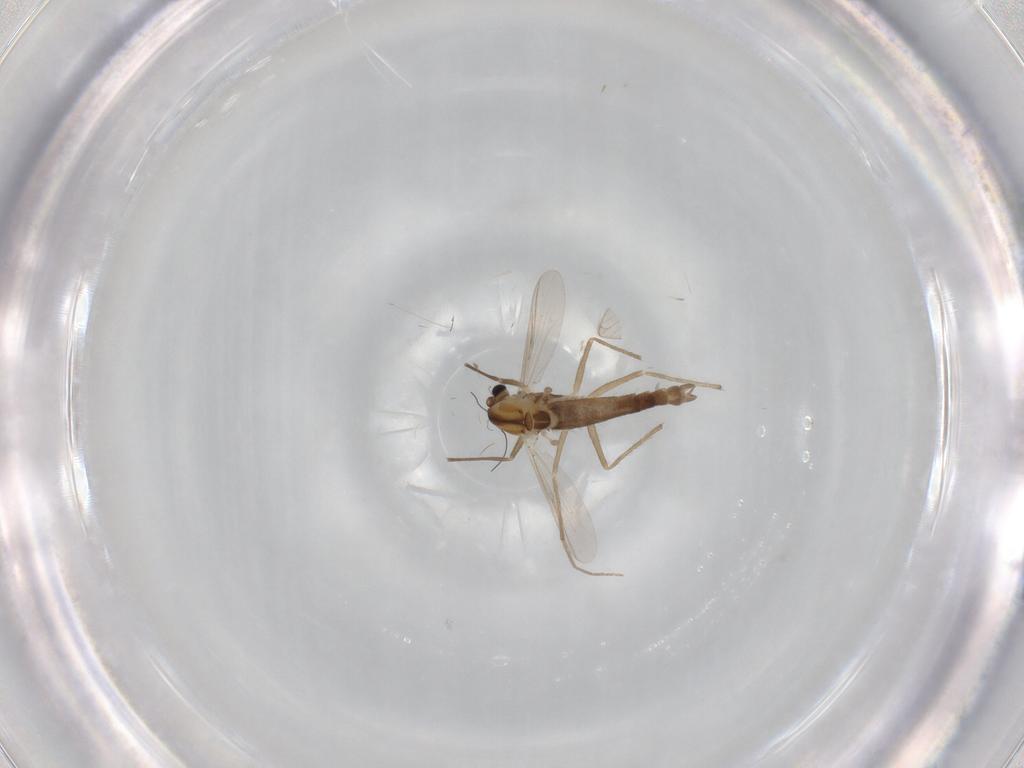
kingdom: Animalia
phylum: Arthropoda
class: Insecta
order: Diptera
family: Chironomidae
